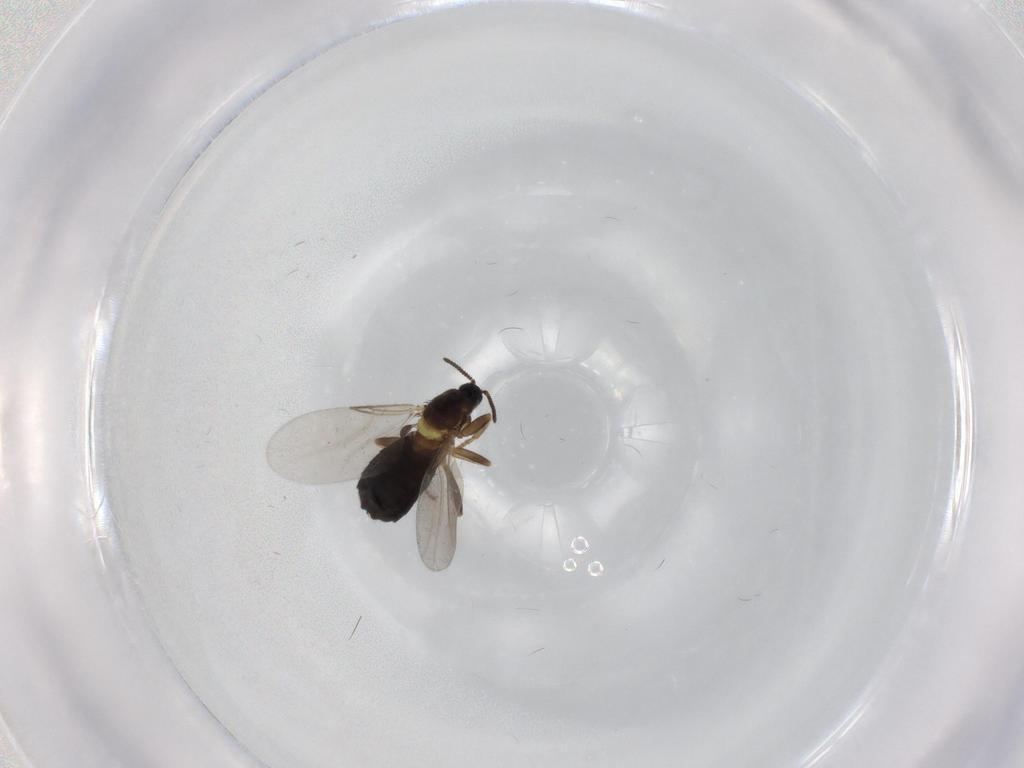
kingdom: Animalia
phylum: Arthropoda
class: Insecta
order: Diptera
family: Scatopsidae
